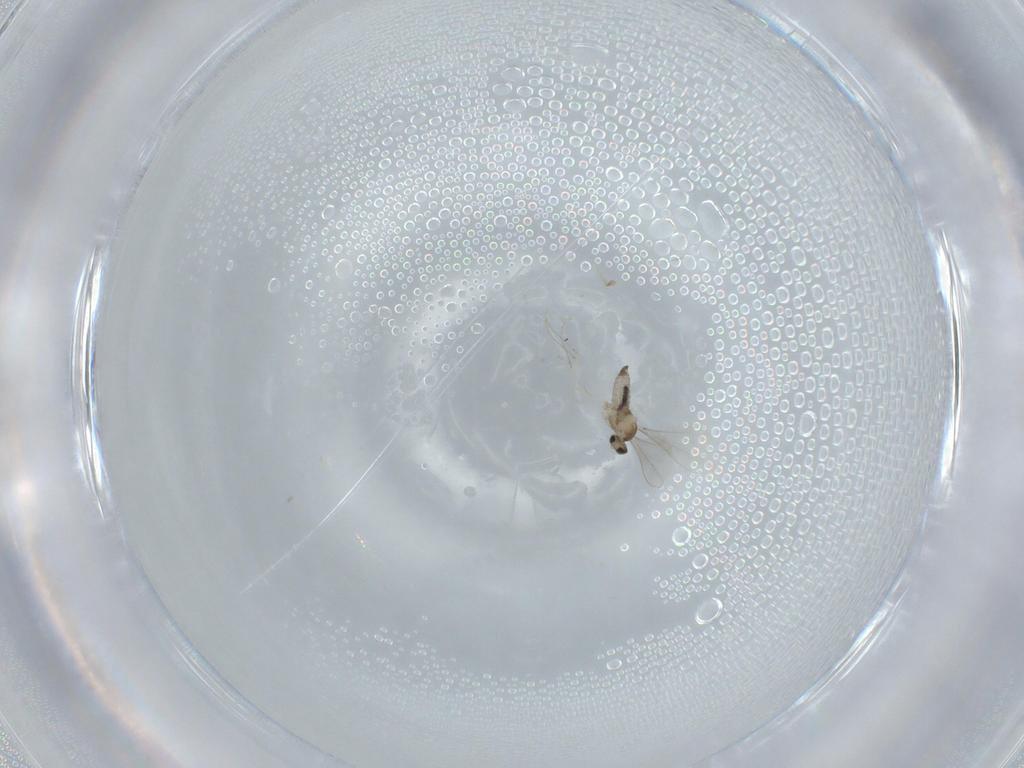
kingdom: Animalia
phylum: Arthropoda
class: Insecta
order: Diptera
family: Cecidomyiidae
